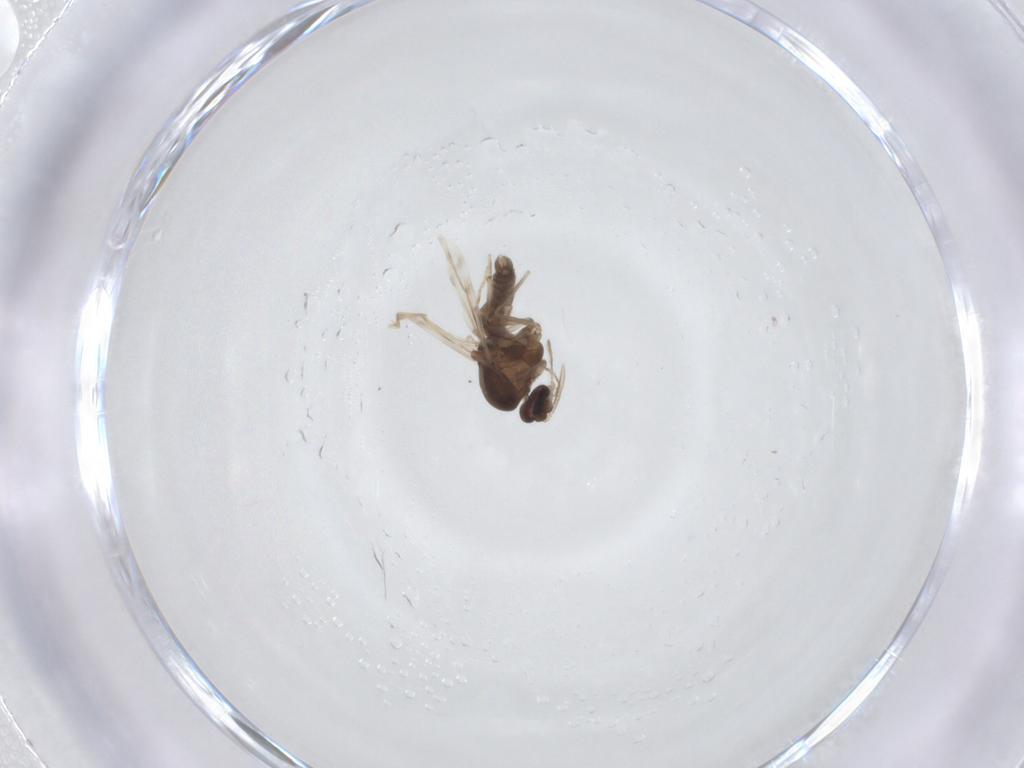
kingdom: Animalia
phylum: Arthropoda
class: Insecta
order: Diptera
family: Ceratopogonidae
